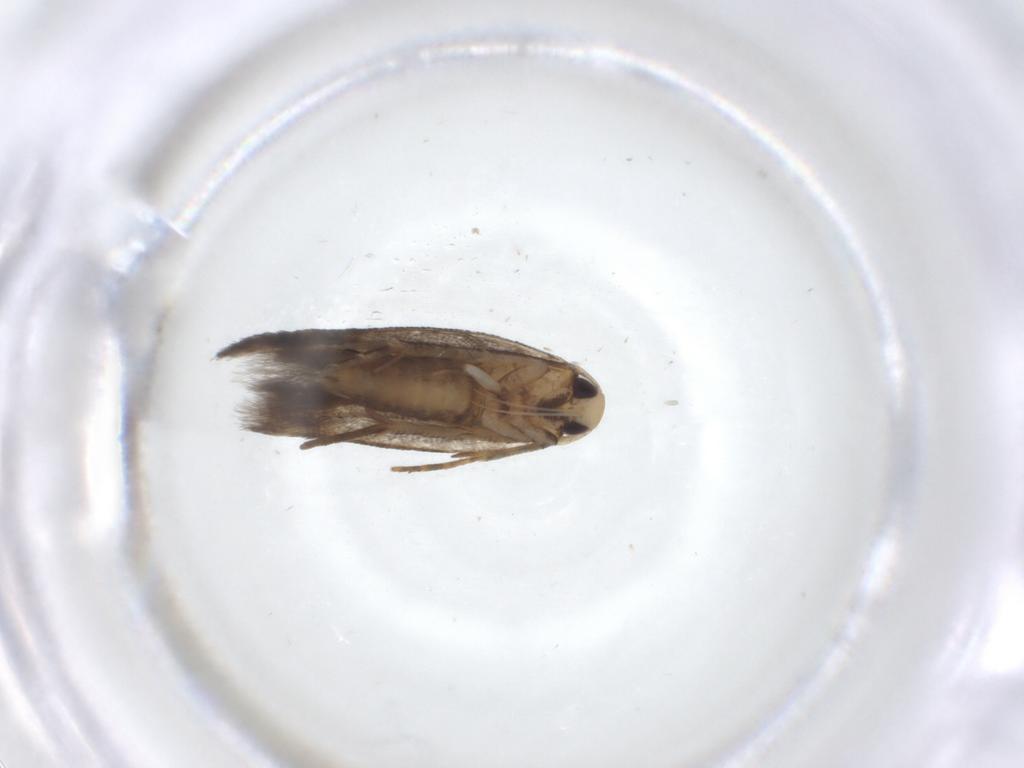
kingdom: Animalia
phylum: Arthropoda
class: Insecta
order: Lepidoptera
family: Cosmopterigidae
